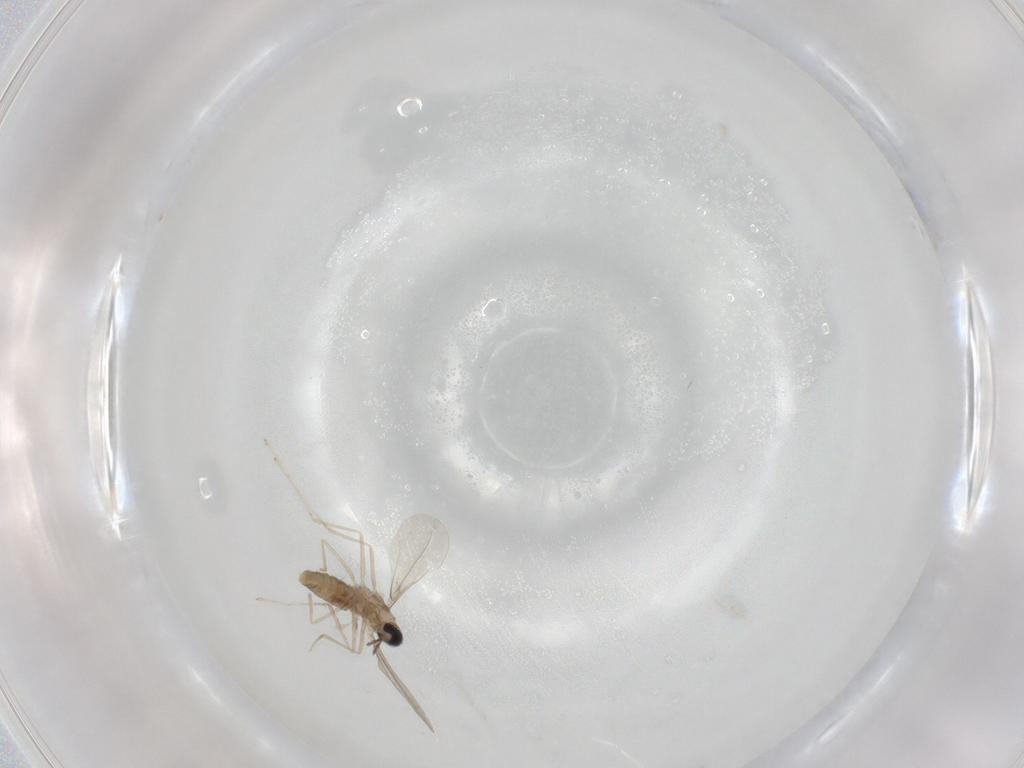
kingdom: Animalia
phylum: Arthropoda
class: Insecta
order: Diptera
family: Cecidomyiidae
